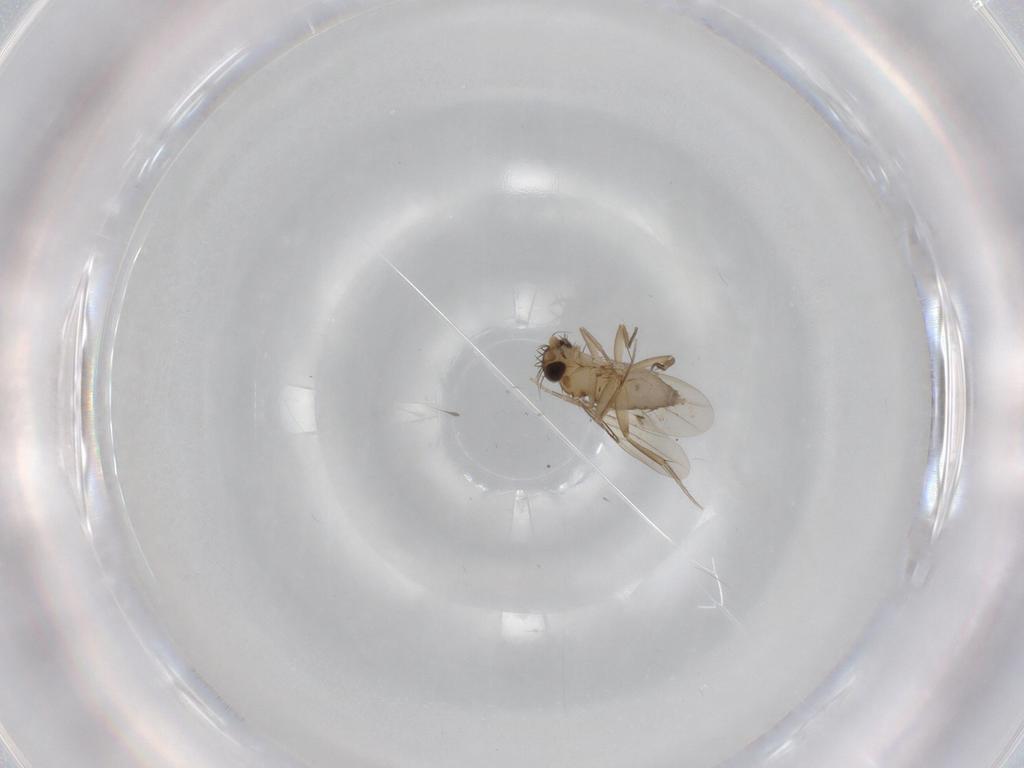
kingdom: Animalia
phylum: Arthropoda
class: Insecta
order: Diptera
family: Phoridae
